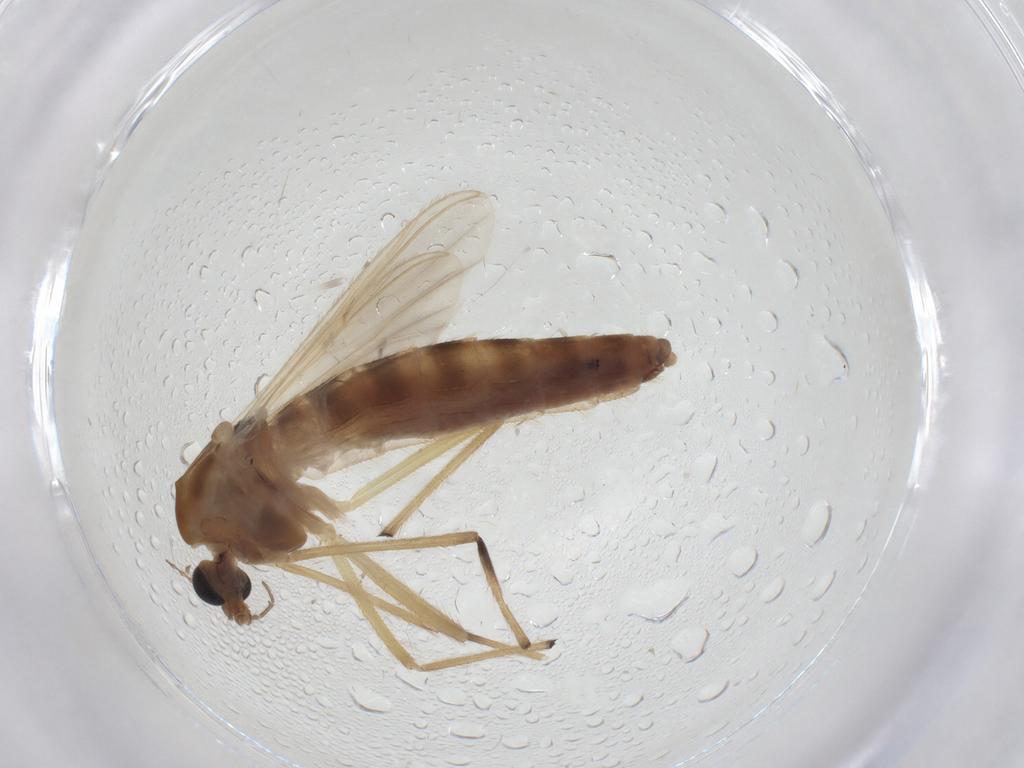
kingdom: Animalia
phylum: Arthropoda
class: Insecta
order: Diptera
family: Chironomidae
